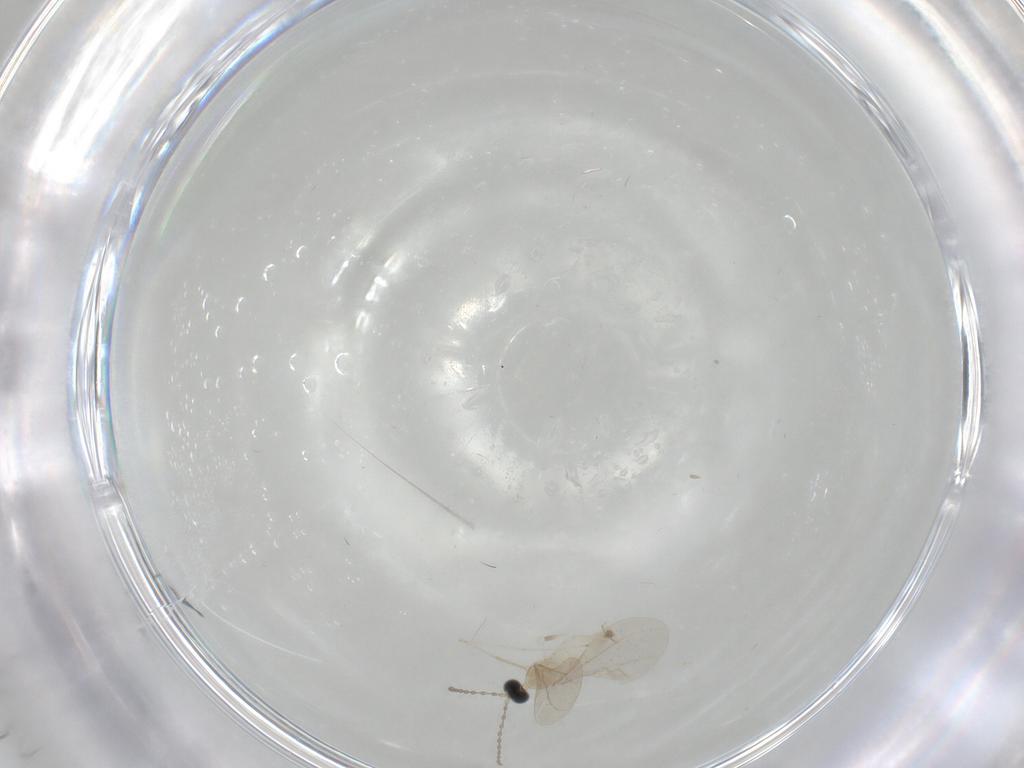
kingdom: Animalia
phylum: Arthropoda
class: Insecta
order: Diptera
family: Cecidomyiidae
